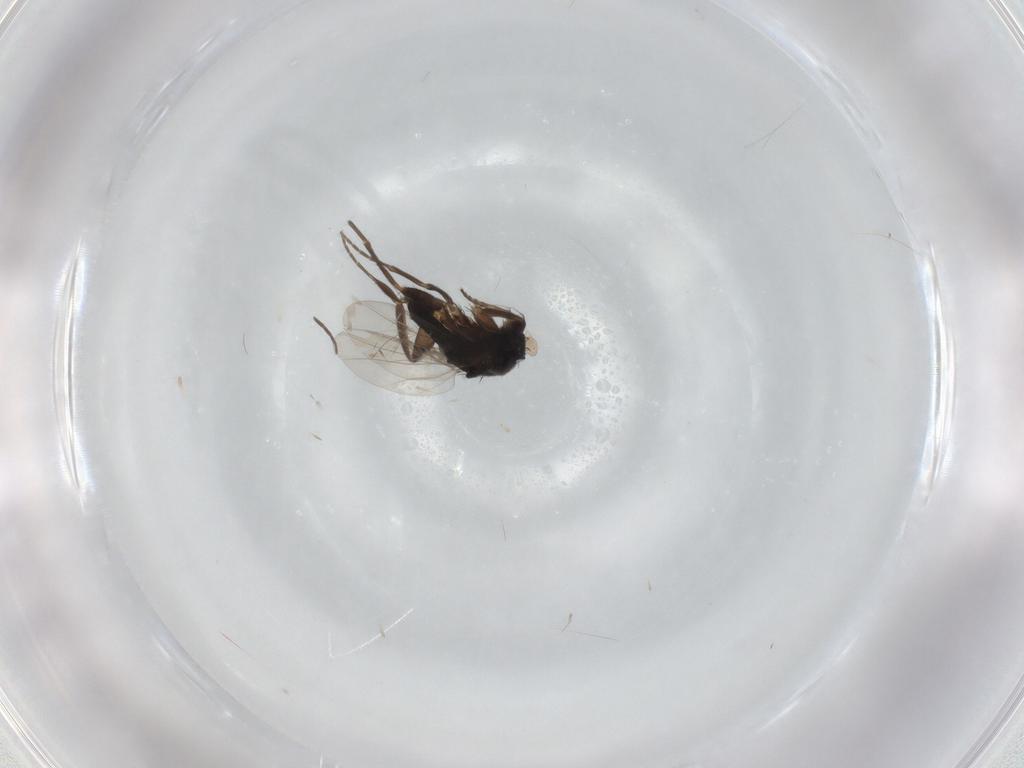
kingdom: Animalia
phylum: Arthropoda
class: Insecta
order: Diptera
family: Phoridae
